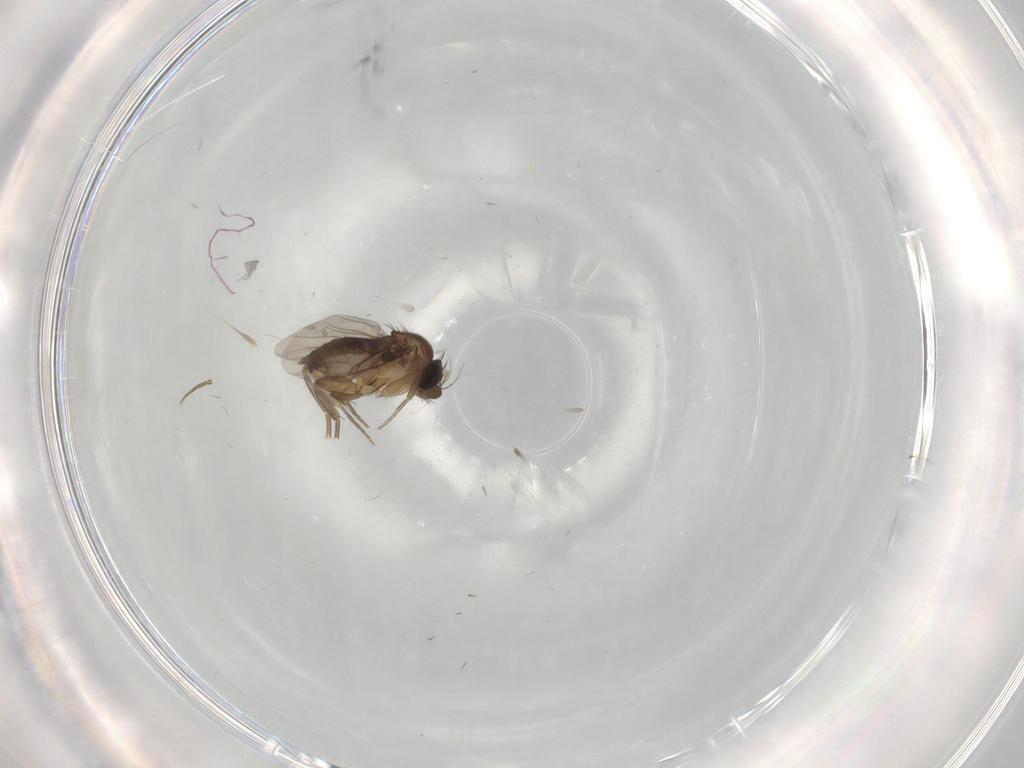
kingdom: Animalia
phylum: Arthropoda
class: Insecta
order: Diptera
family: Phoridae
